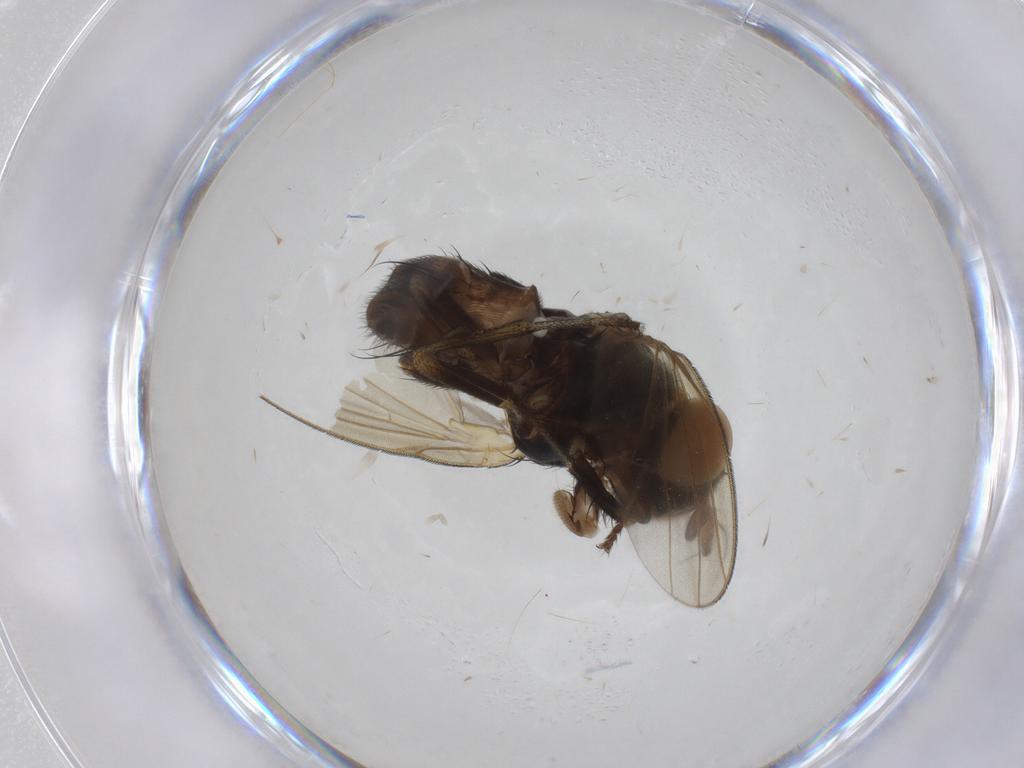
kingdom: Animalia
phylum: Arthropoda
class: Insecta
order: Diptera
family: Lauxaniidae
